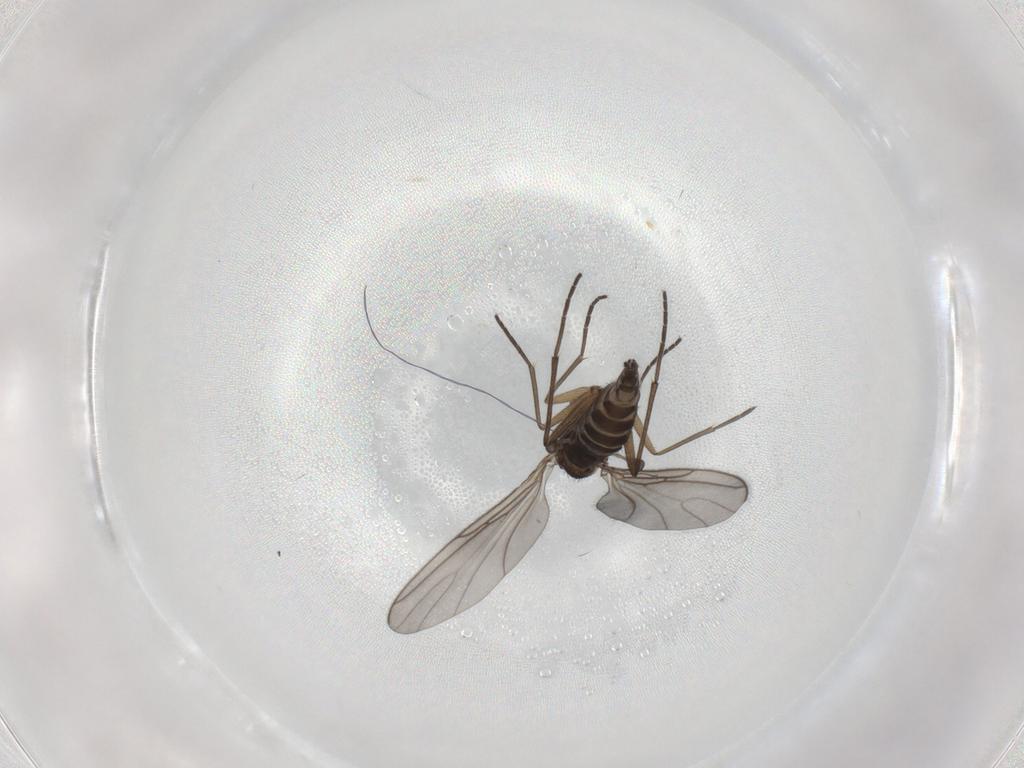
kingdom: Animalia
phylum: Arthropoda
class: Insecta
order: Diptera
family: Sciaridae
